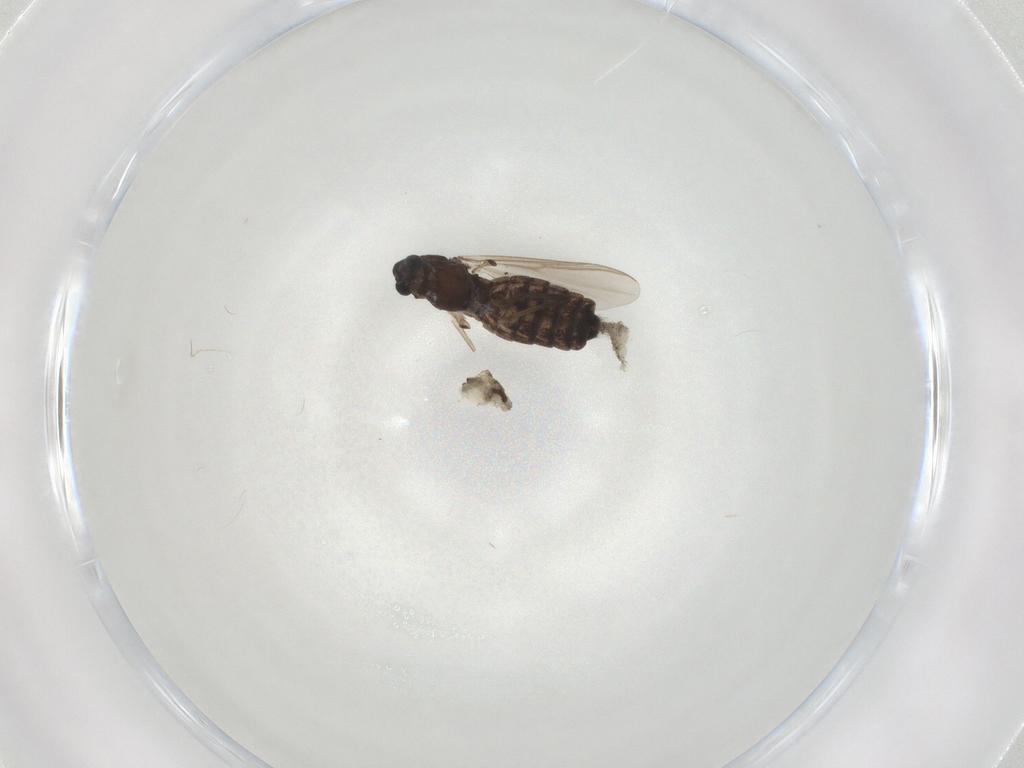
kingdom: Animalia
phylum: Arthropoda
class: Insecta
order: Diptera
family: Chironomidae
